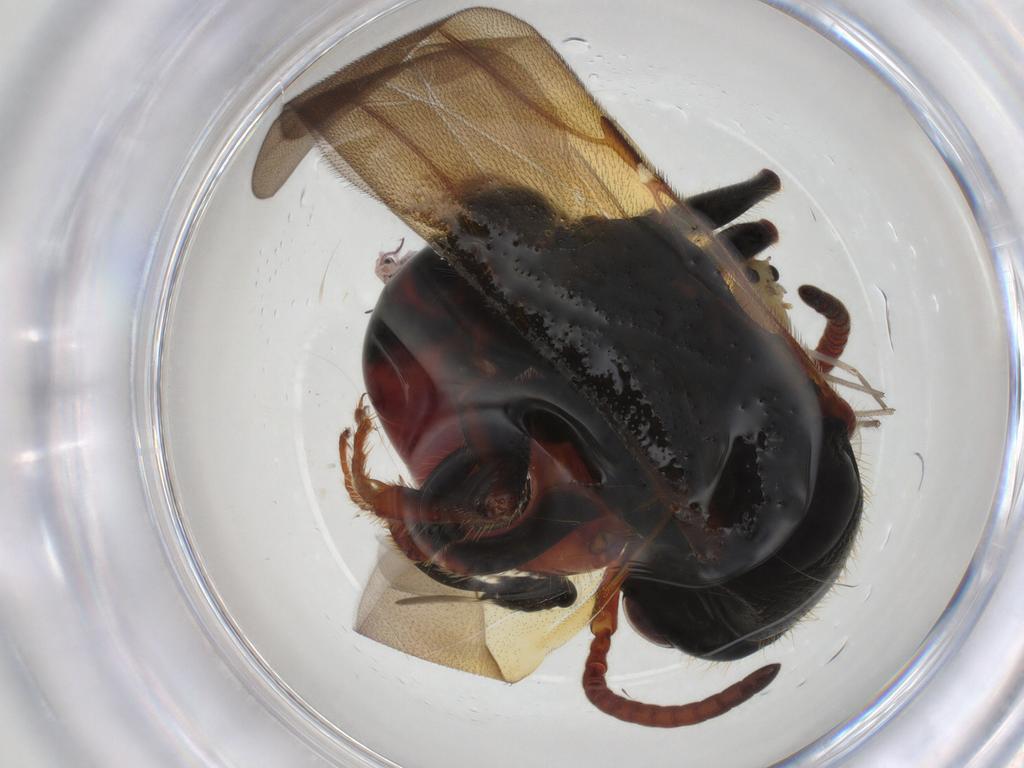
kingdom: Animalia
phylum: Arthropoda
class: Insecta
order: Diptera
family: Chironomidae
